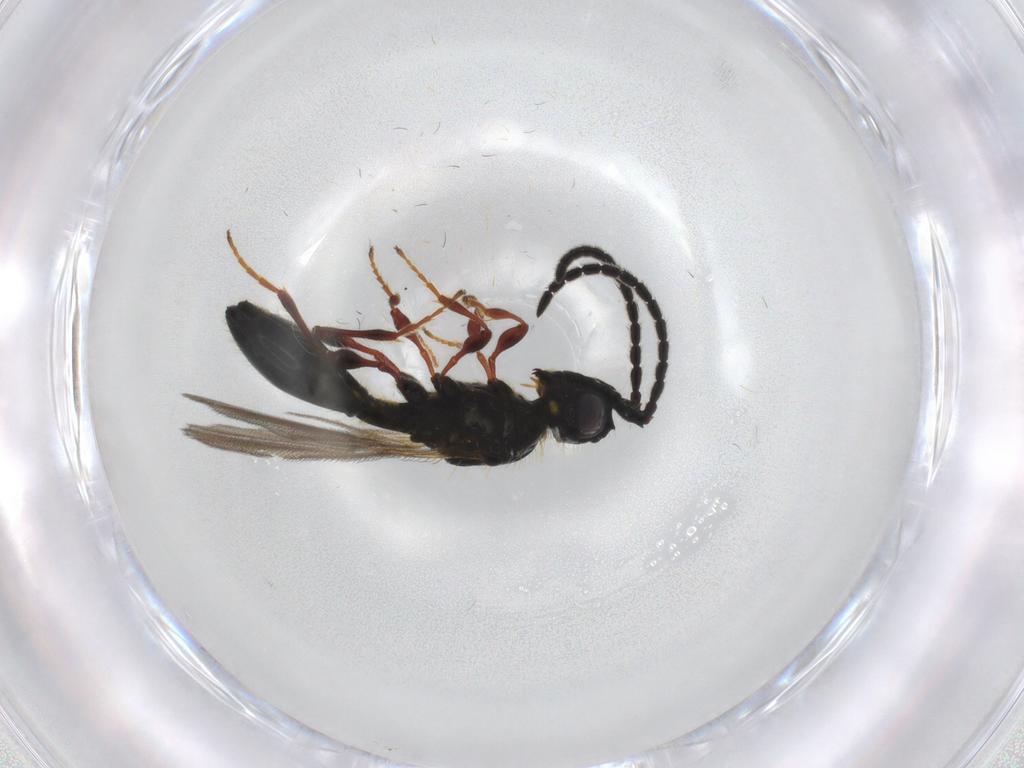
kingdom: Animalia
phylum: Arthropoda
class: Insecta
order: Hymenoptera
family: Diapriidae
